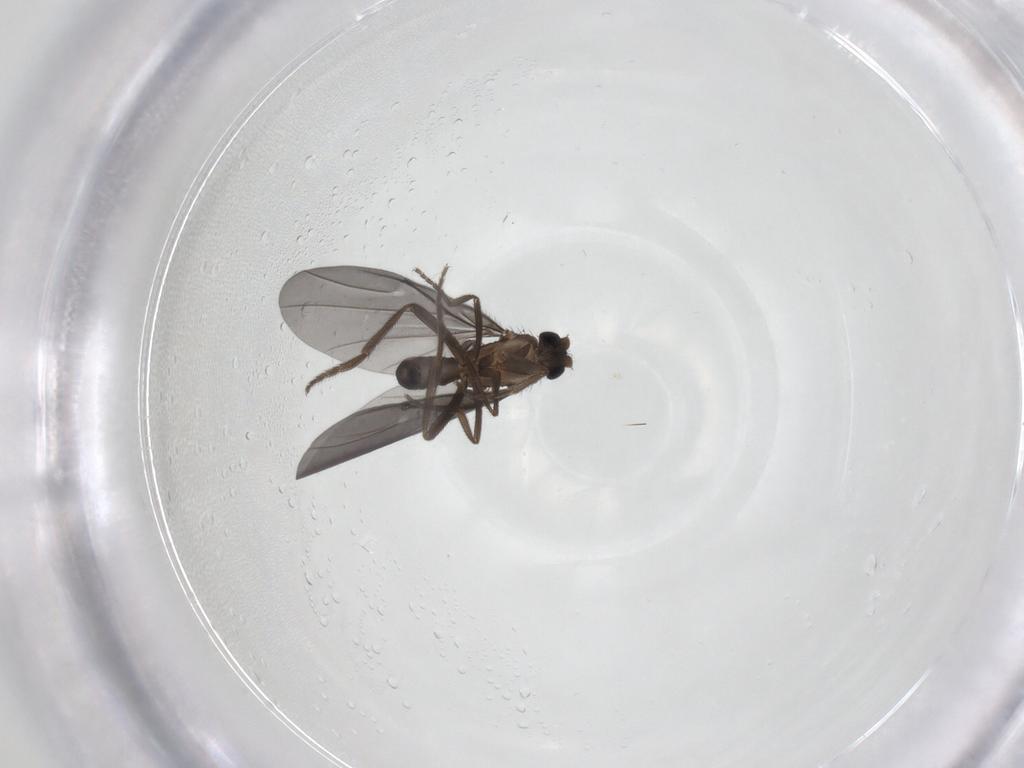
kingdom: Animalia
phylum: Arthropoda
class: Insecta
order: Diptera
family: Phoridae
